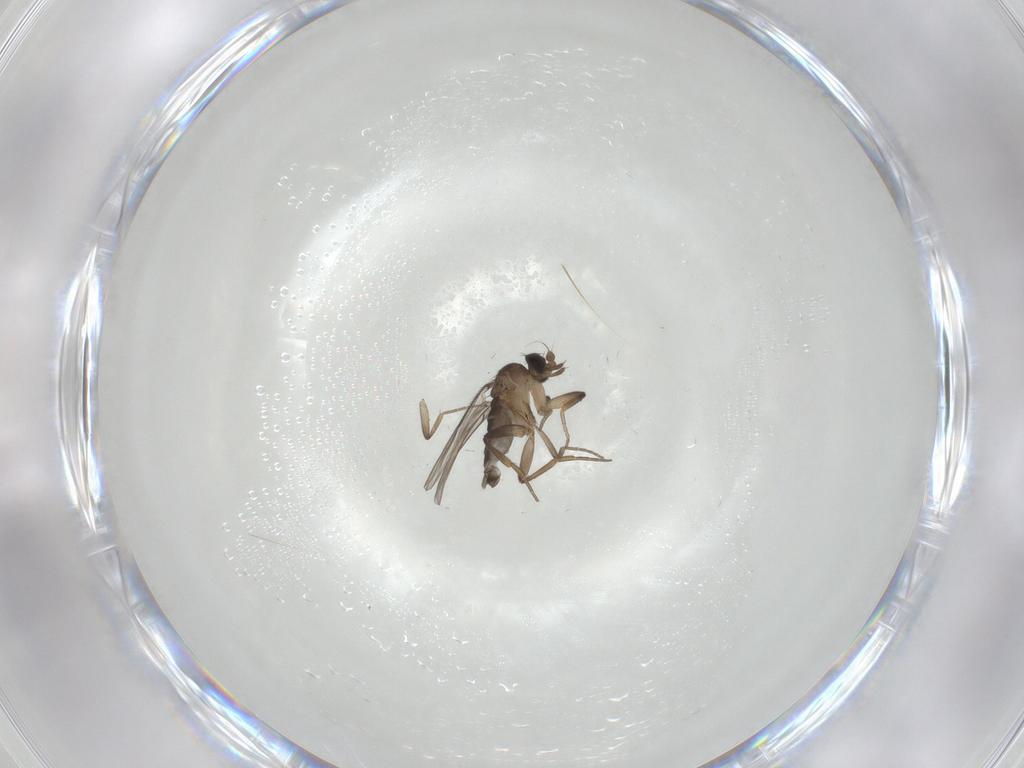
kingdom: Animalia
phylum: Arthropoda
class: Insecta
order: Diptera
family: Phoridae
